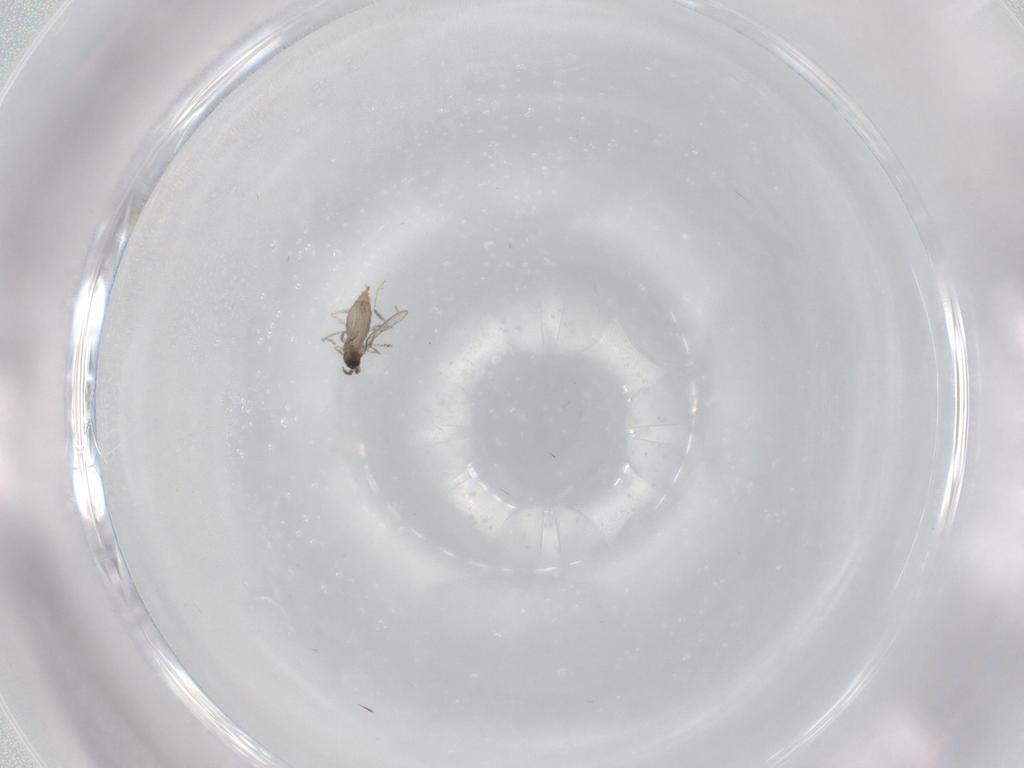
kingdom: Animalia
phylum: Arthropoda
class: Insecta
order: Diptera
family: Cecidomyiidae
